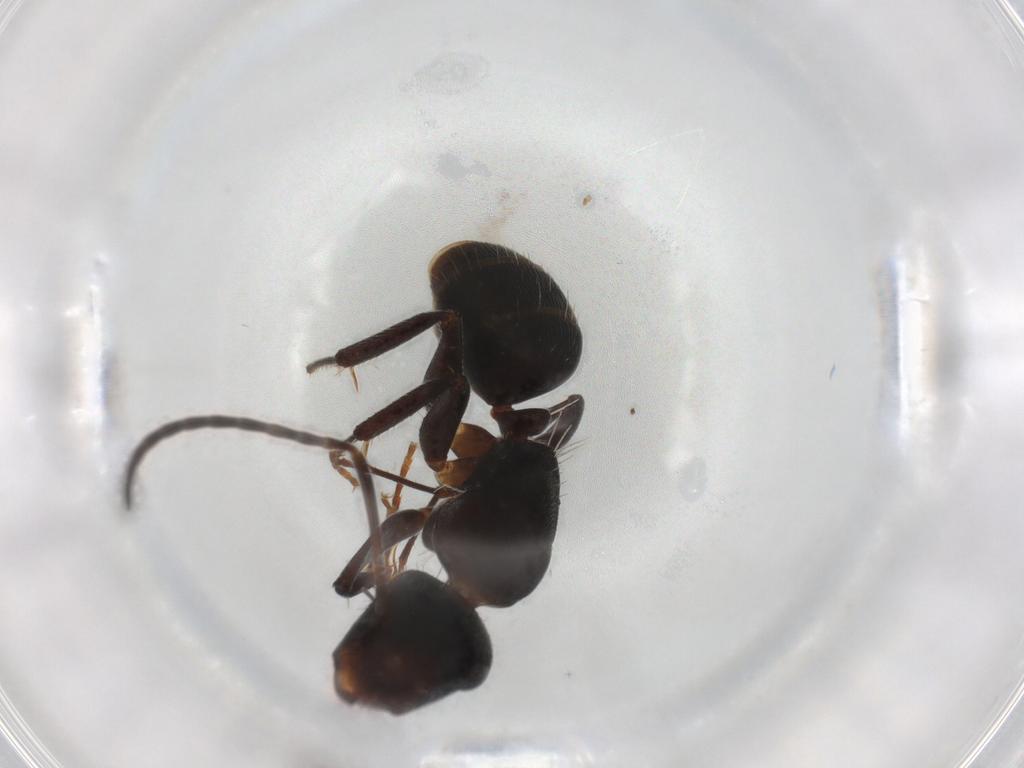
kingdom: Animalia
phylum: Arthropoda
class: Insecta
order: Hymenoptera
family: Formicidae
